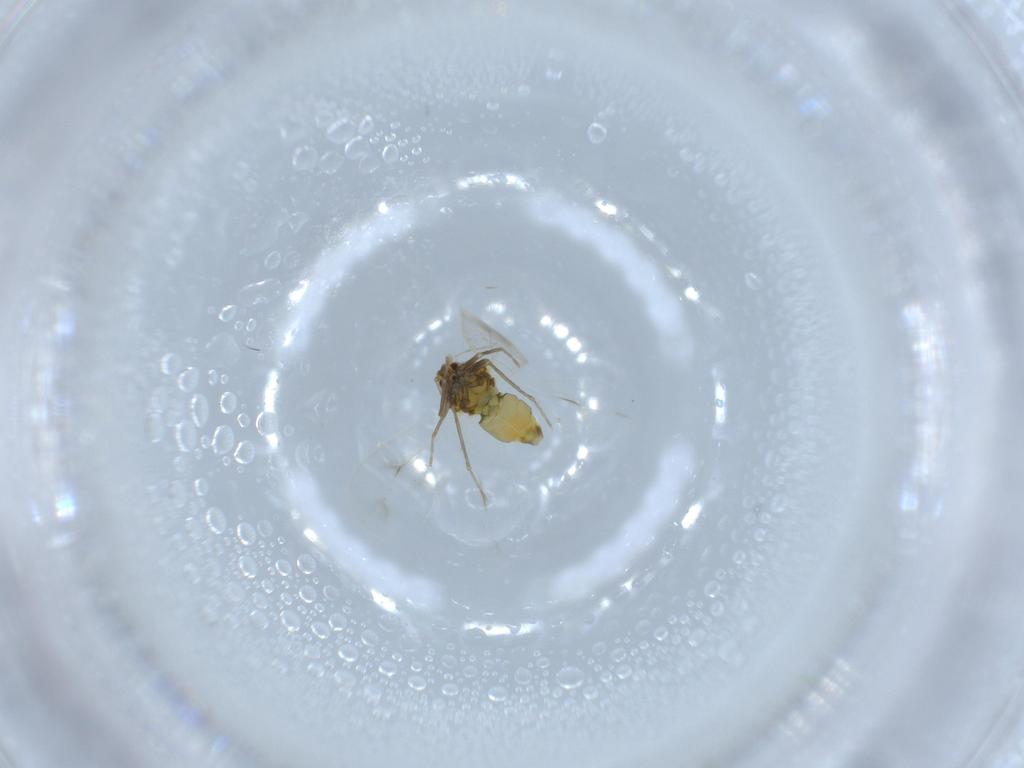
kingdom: Animalia
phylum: Arthropoda
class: Insecta
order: Hemiptera
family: Aleyrodidae
